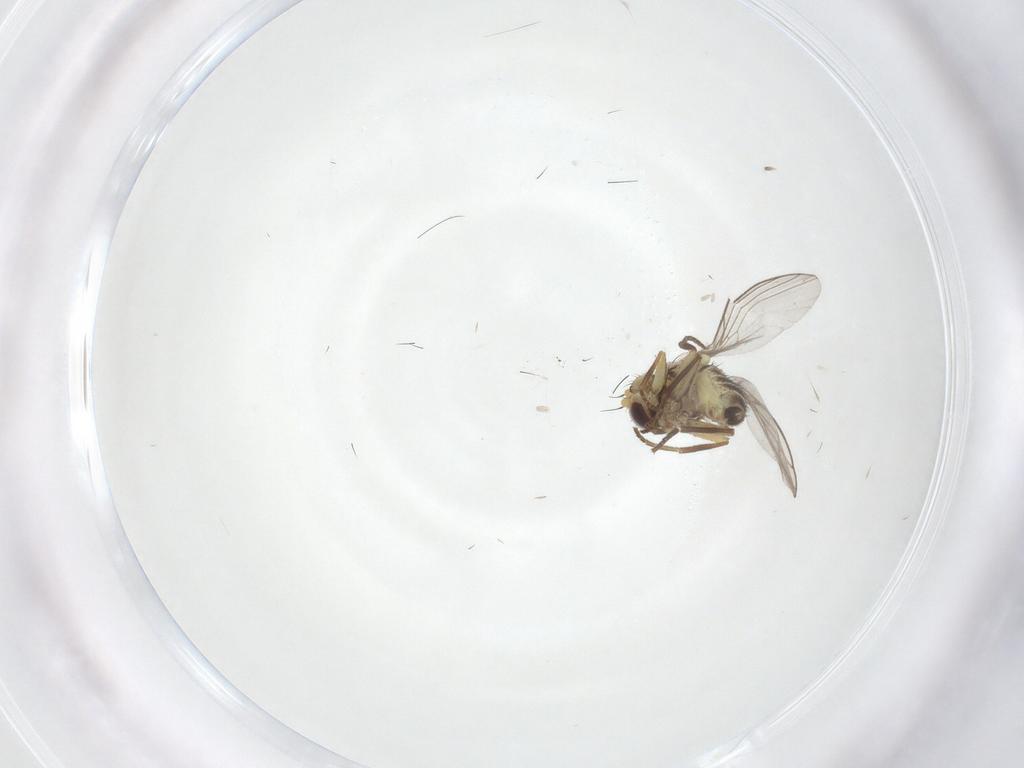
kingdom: Animalia
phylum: Arthropoda
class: Insecta
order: Diptera
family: Agromyzidae
